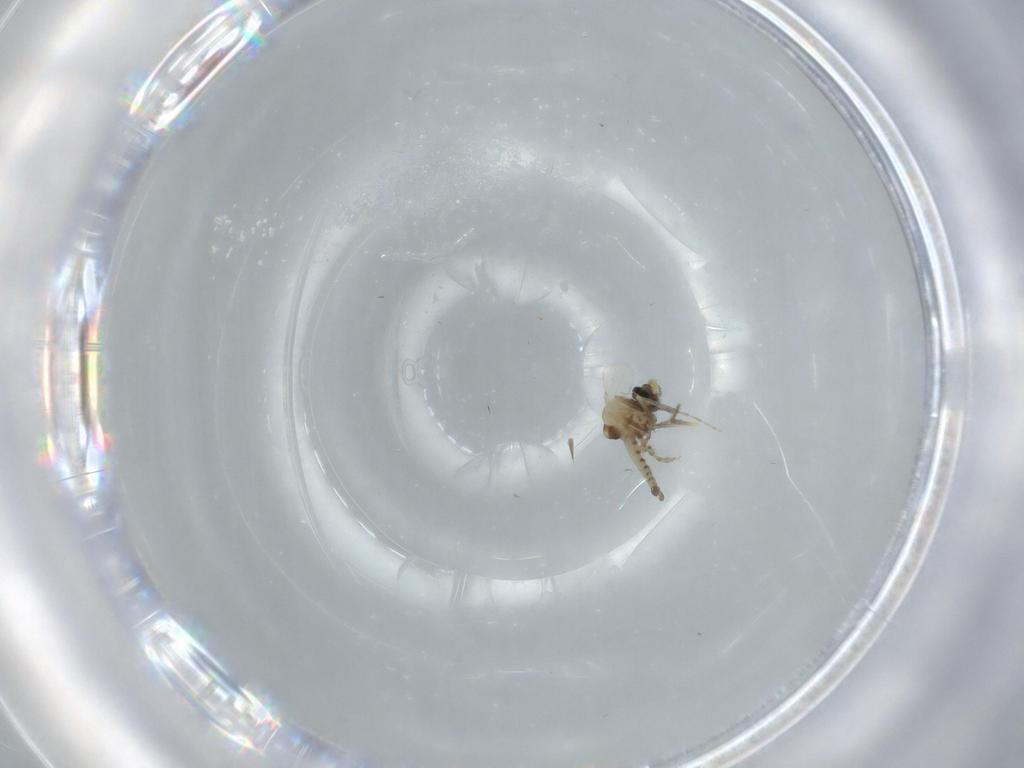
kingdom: Animalia
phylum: Arthropoda
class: Insecta
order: Diptera
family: Ceratopogonidae
